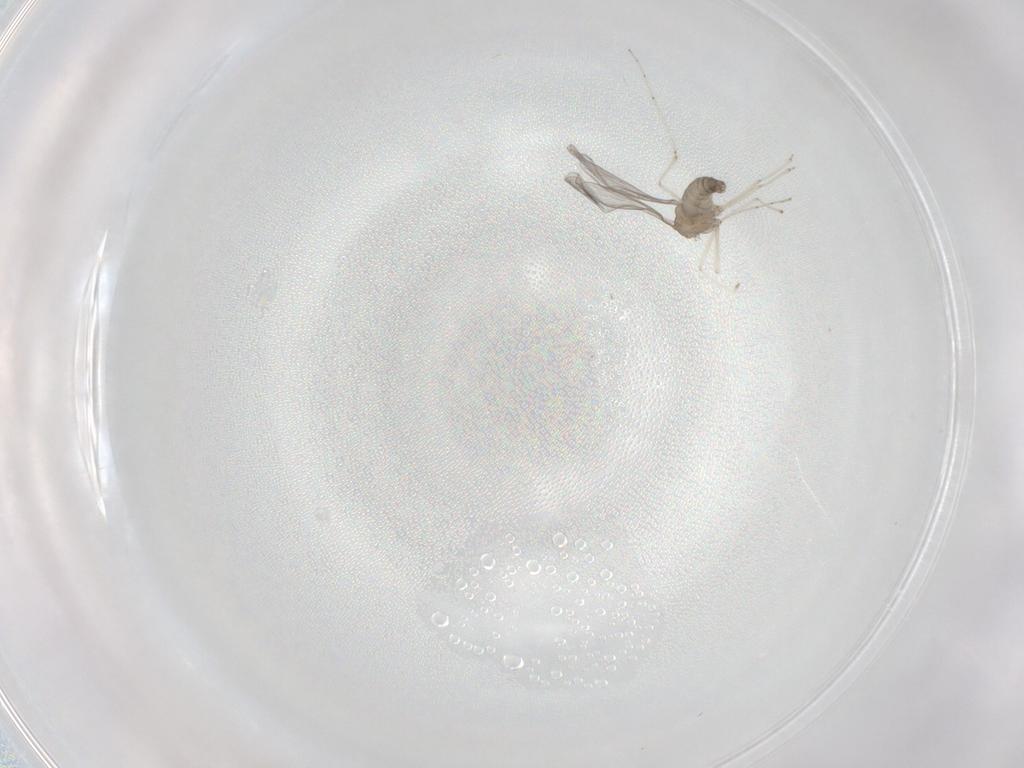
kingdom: Animalia
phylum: Arthropoda
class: Insecta
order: Diptera
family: Cecidomyiidae
